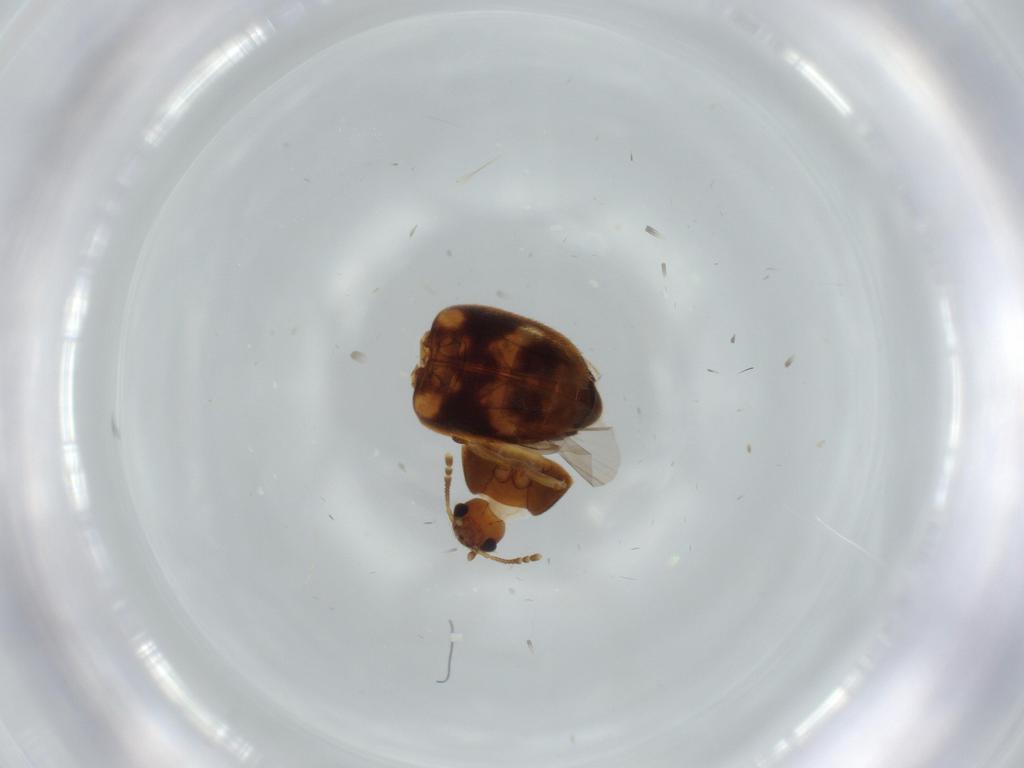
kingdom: Animalia
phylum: Arthropoda
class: Insecta
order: Coleoptera
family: Mycetophagidae
